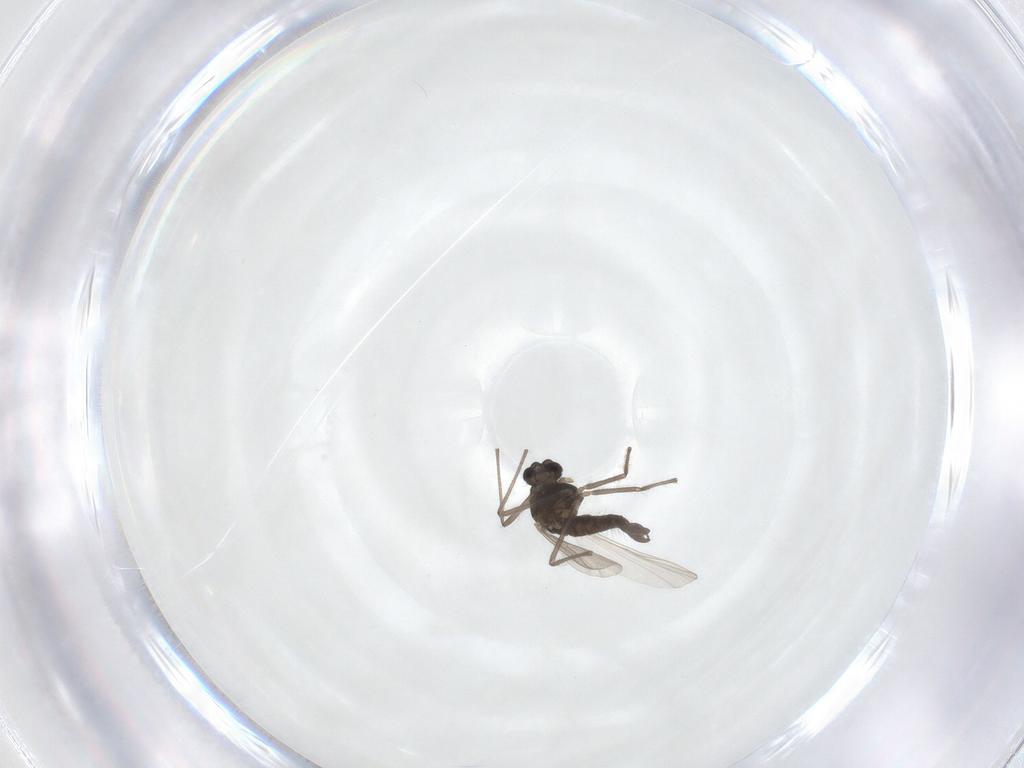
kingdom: Animalia
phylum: Arthropoda
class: Insecta
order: Diptera
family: Chironomidae
